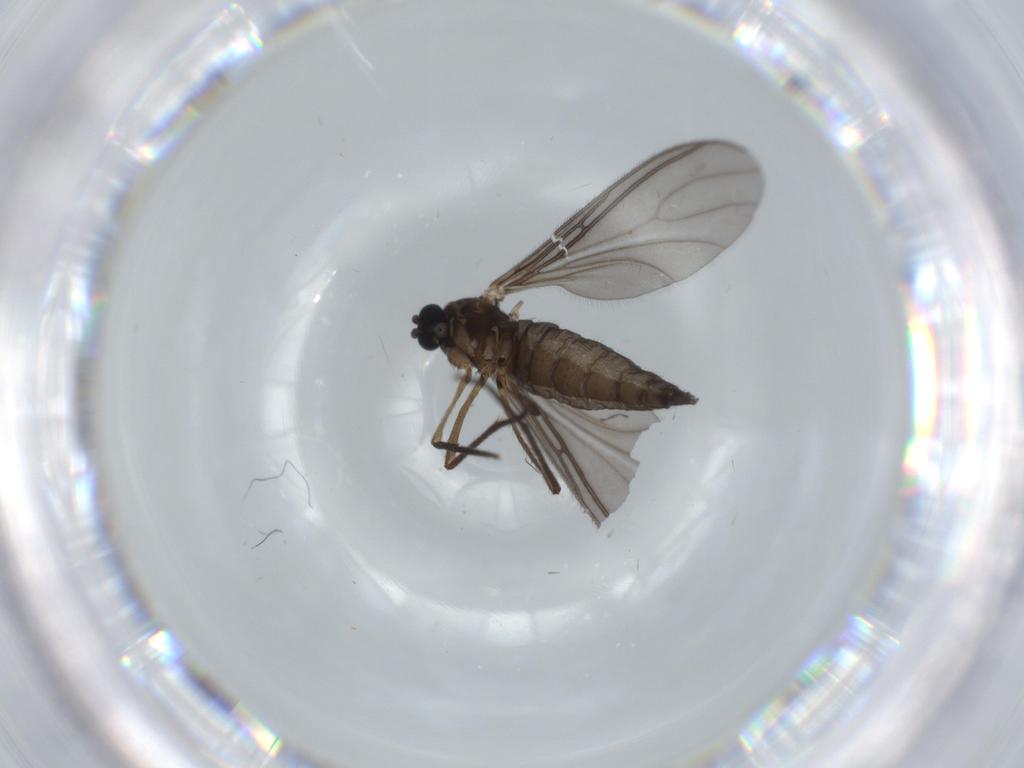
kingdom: Animalia
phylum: Arthropoda
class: Insecta
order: Diptera
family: Sciaridae
